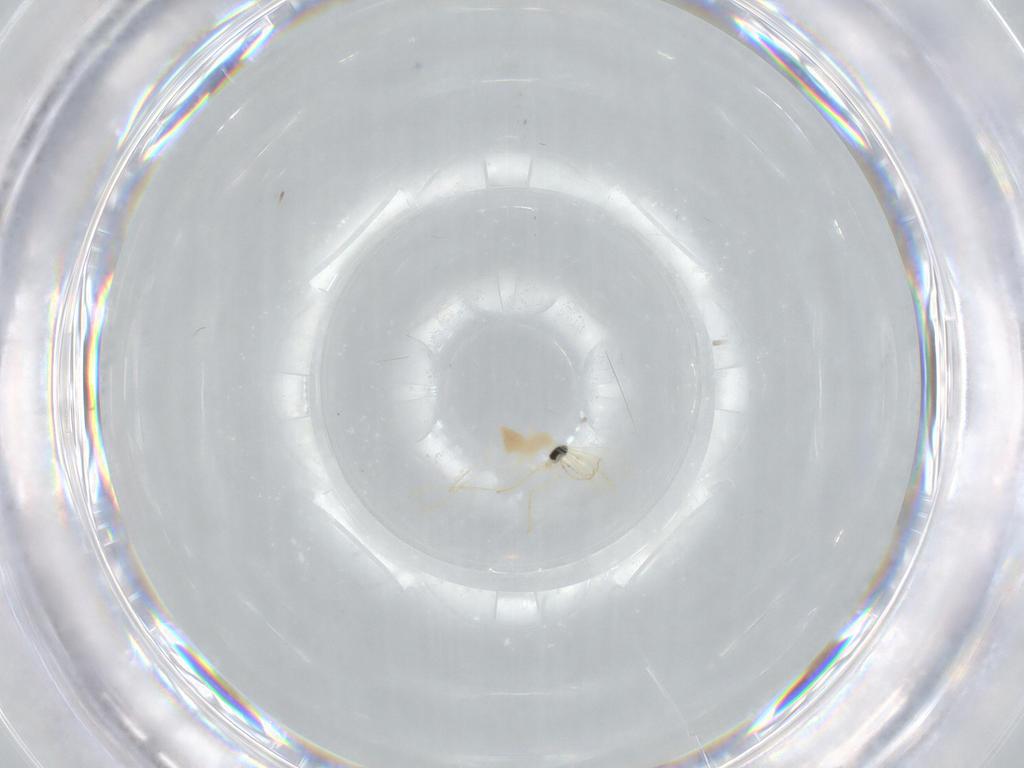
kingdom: Animalia
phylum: Arthropoda
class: Insecta
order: Diptera
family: Cecidomyiidae
